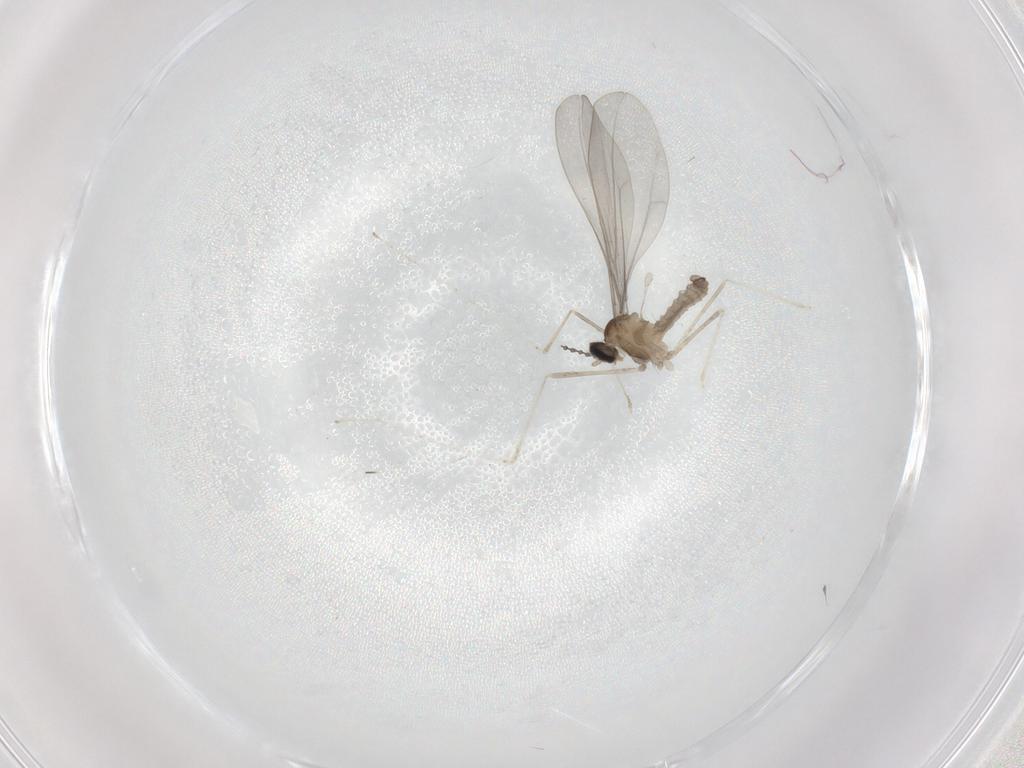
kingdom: Animalia
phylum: Arthropoda
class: Insecta
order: Diptera
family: Cecidomyiidae
